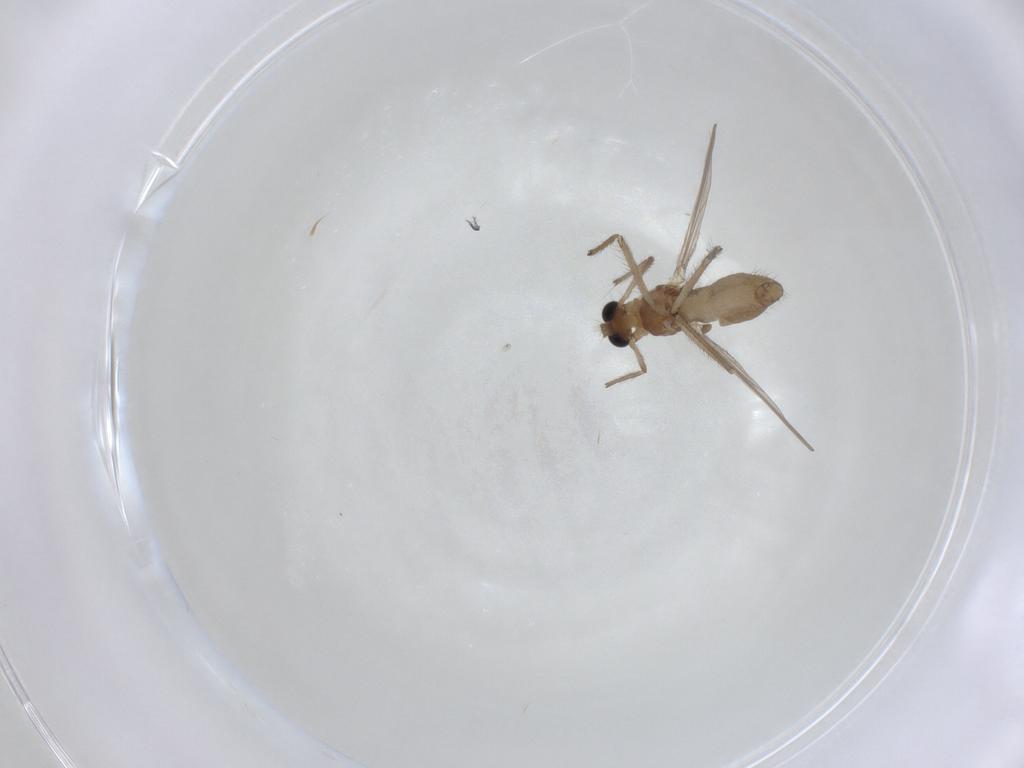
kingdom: Animalia
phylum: Arthropoda
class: Insecta
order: Diptera
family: Chironomidae
